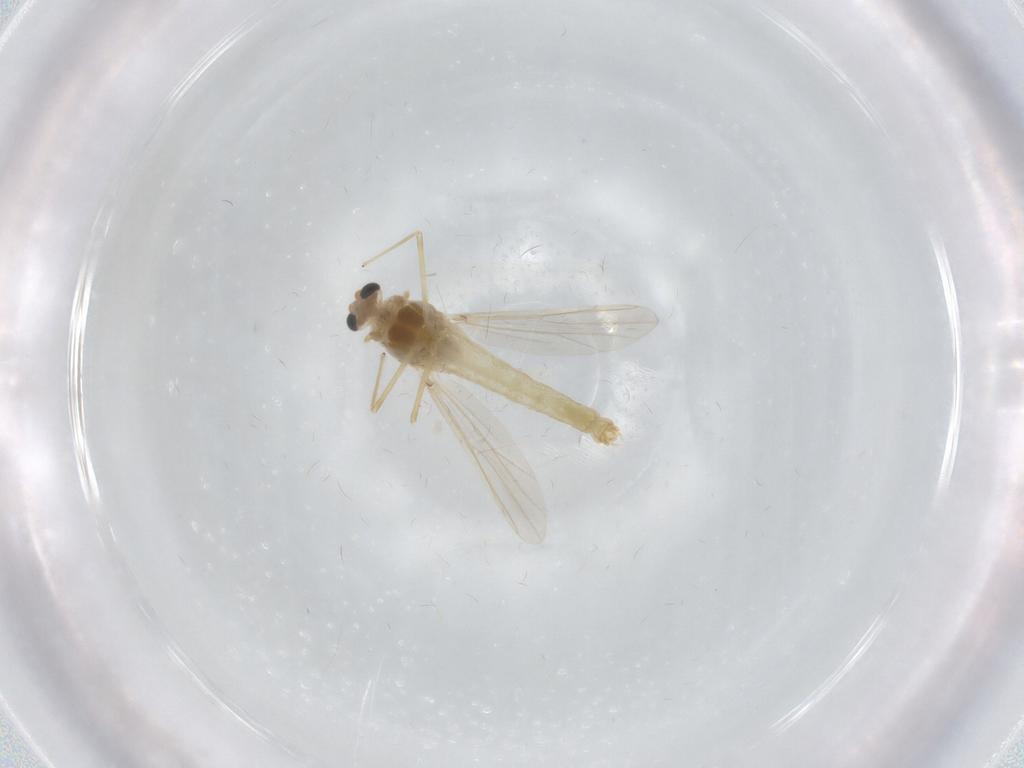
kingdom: Animalia
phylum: Arthropoda
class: Insecta
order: Diptera
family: Chironomidae
